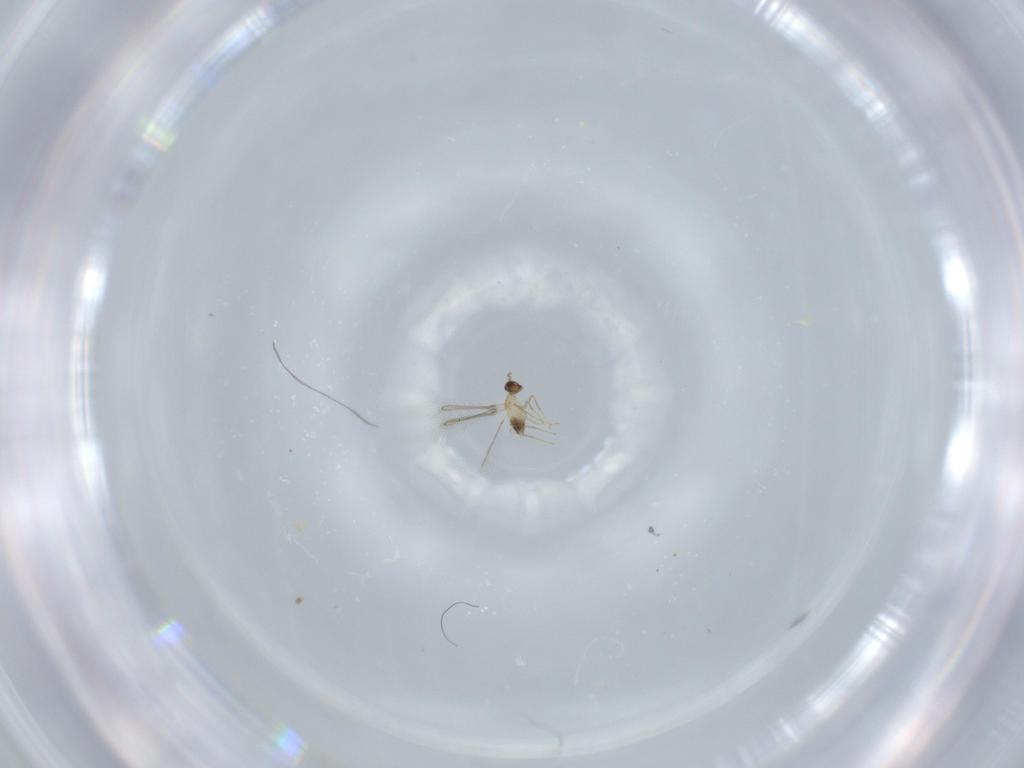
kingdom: Animalia
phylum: Arthropoda
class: Insecta
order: Hymenoptera
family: Mymaridae
